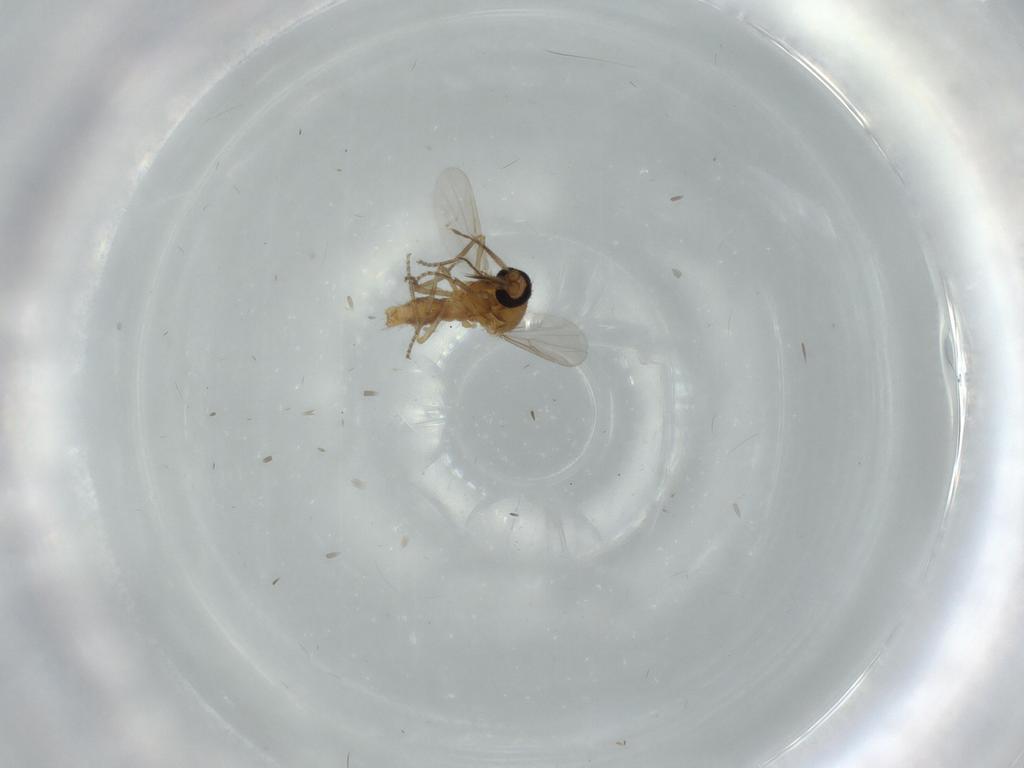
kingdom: Animalia
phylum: Arthropoda
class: Insecta
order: Diptera
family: Ceratopogonidae
